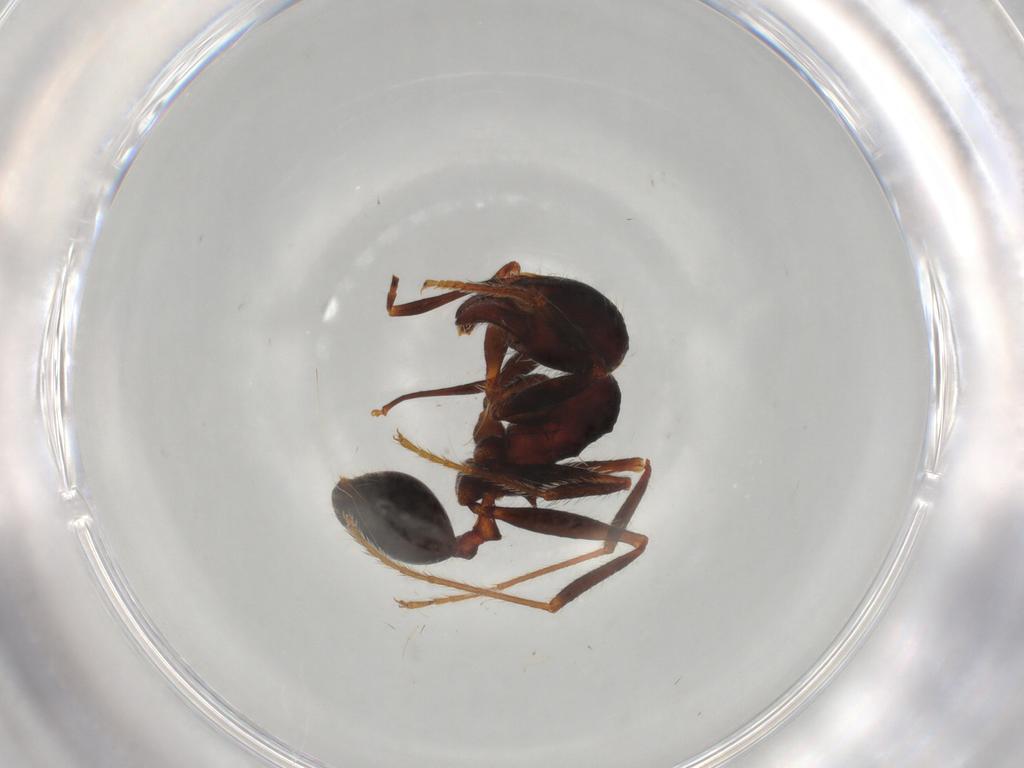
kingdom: Animalia
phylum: Arthropoda
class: Insecta
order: Hymenoptera
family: Formicidae
